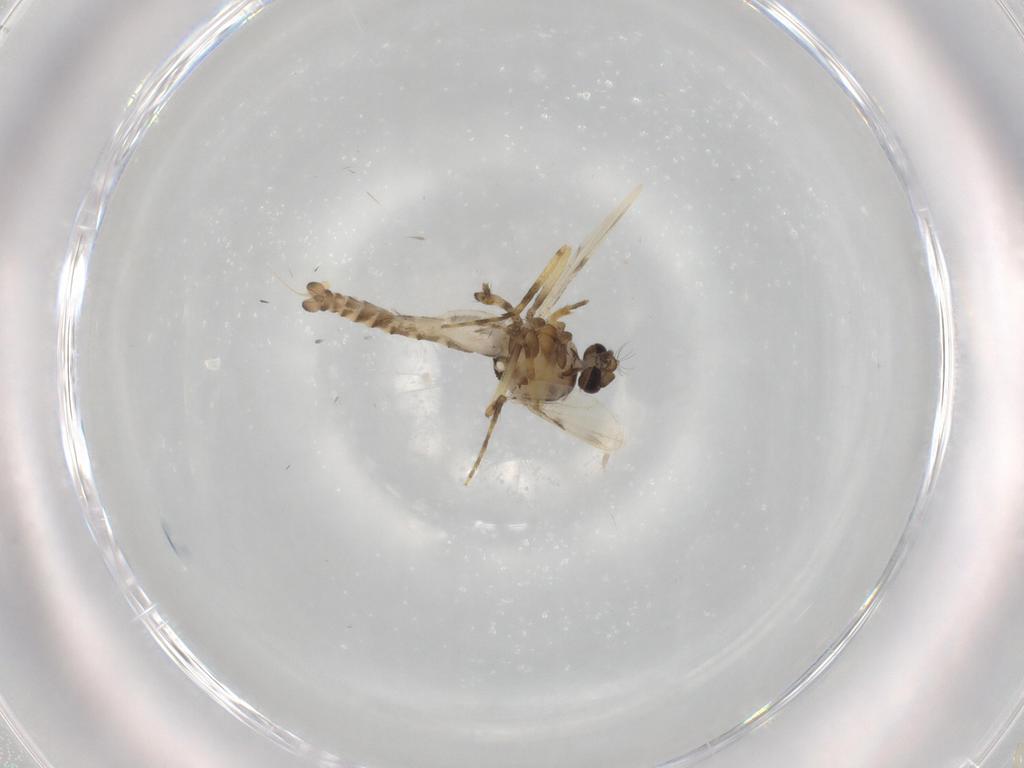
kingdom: Animalia
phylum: Arthropoda
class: Insecta
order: Diptera
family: Ceratopogonidae
